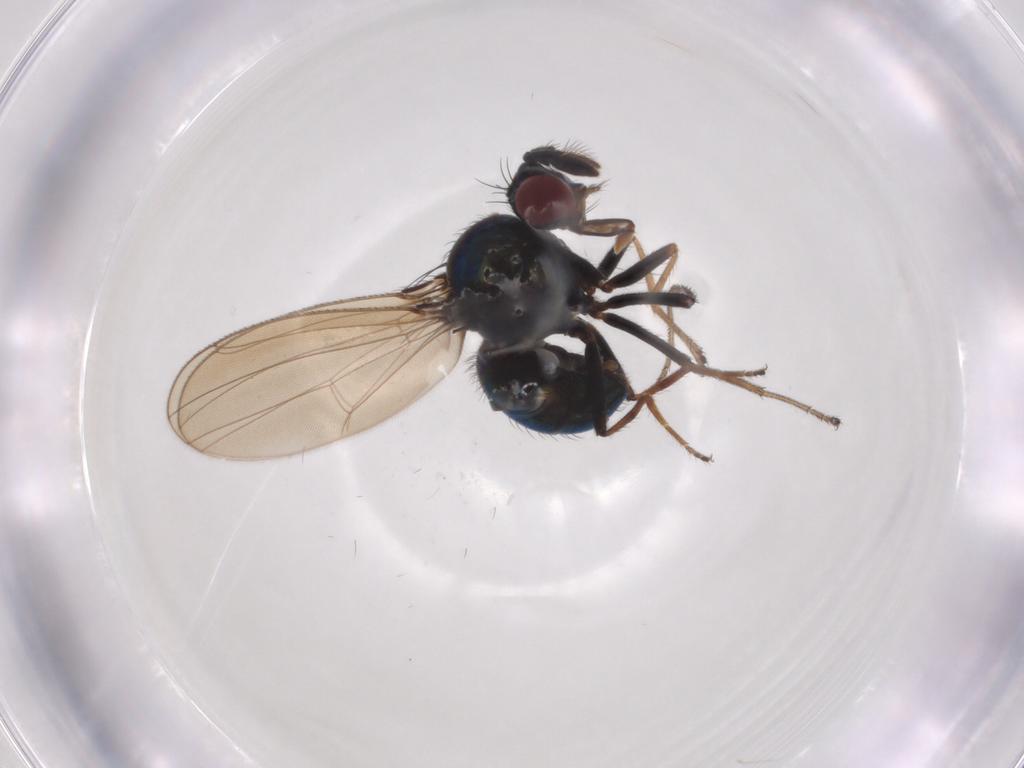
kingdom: Animalia
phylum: Arthropoda
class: Insecta
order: Diptera
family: Ephydridae
